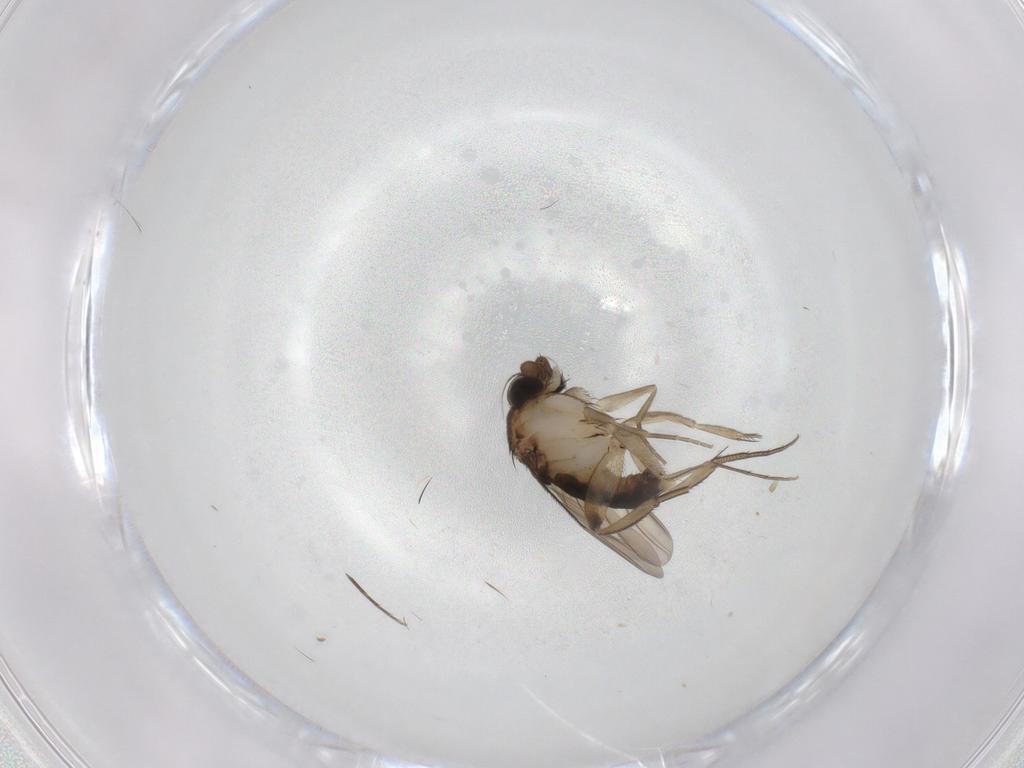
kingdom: Animalia
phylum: Arthropoda
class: Insecta
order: Diptera
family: Phoridae
